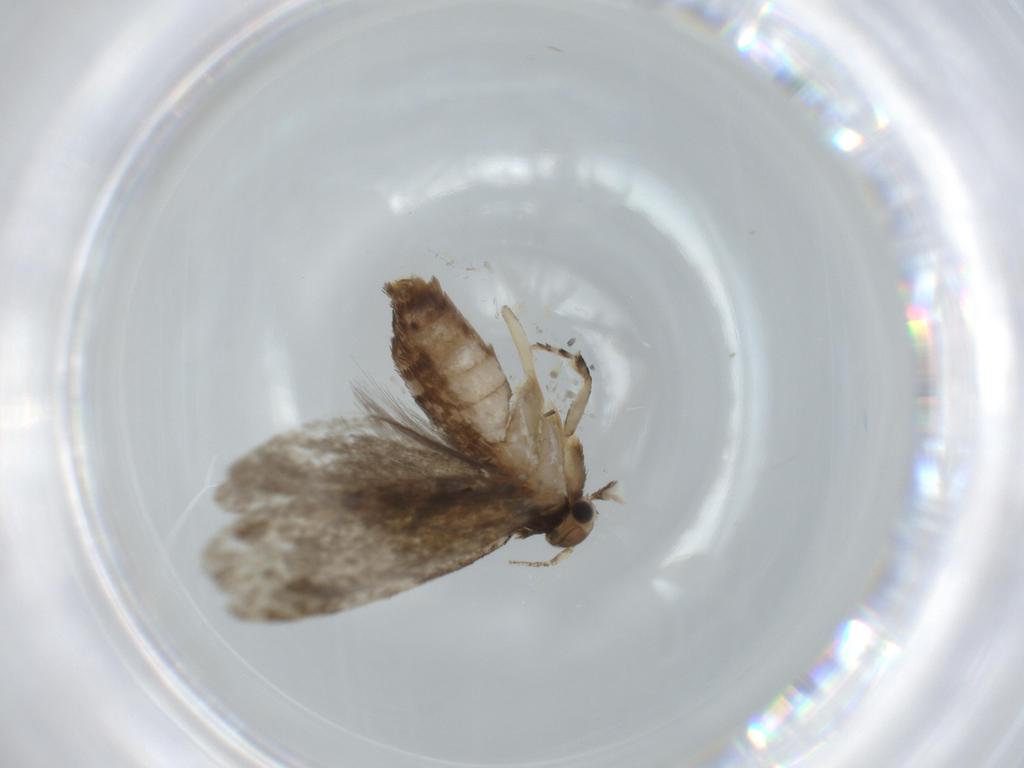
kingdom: Animalia
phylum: Arthropoda
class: Insecta
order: Lepidoptera
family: Tineidae
